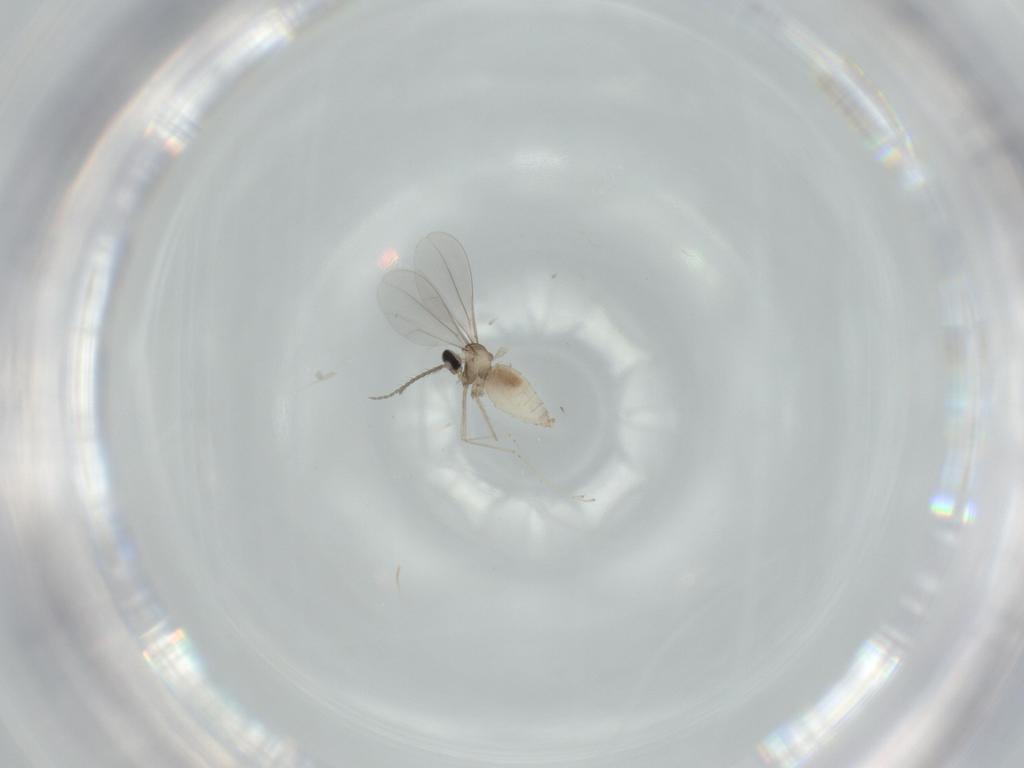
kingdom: Animalia
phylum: Arthropoda
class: Insecta
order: Diptera
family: Cecidomyiidae
